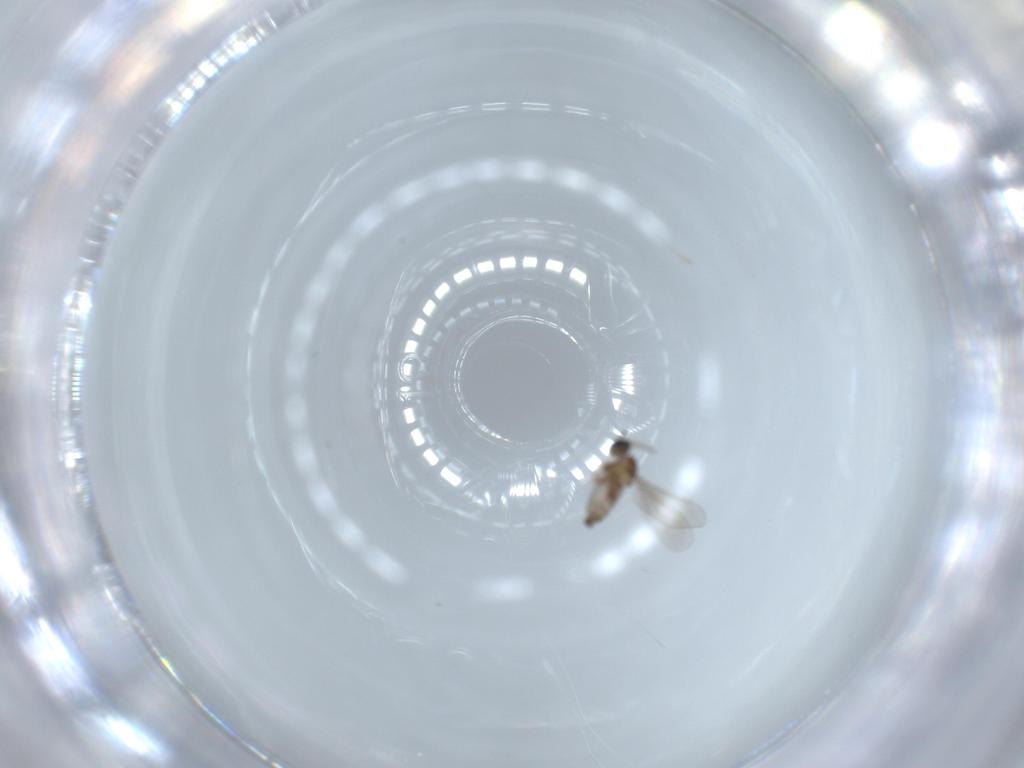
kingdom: Animalia
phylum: Arthropoda
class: Insecta
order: Diptera
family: Asilidae
